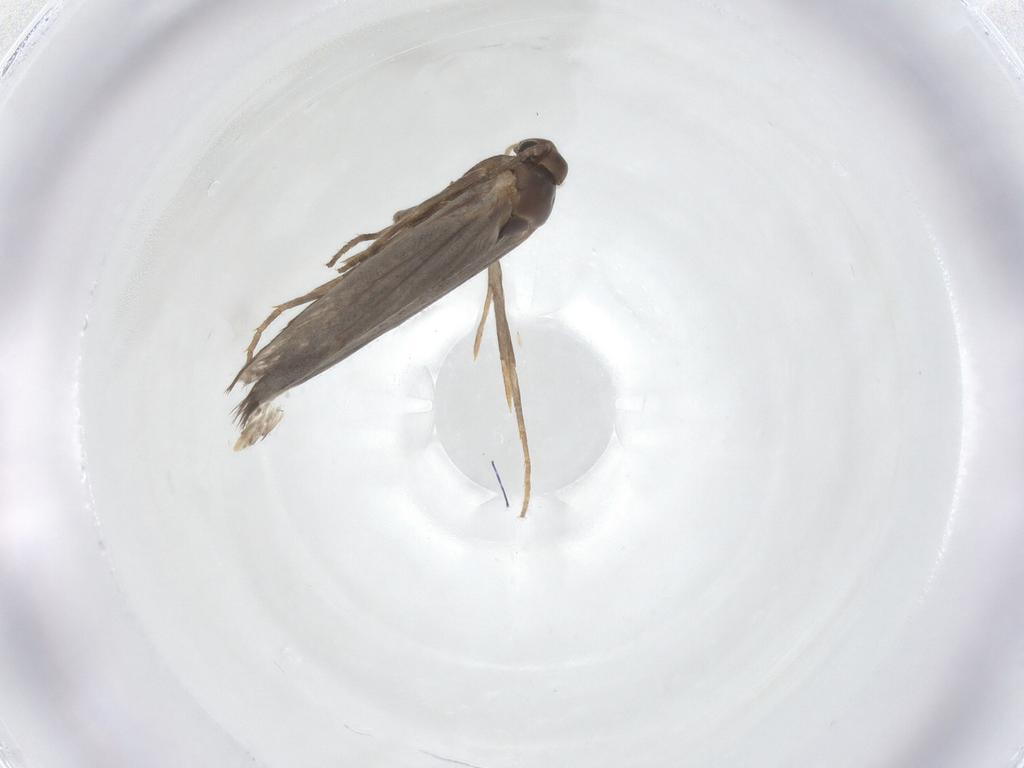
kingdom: Animalia
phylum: Arthropoda
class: Insecta
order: Lepidoptera
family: Elachistidae
